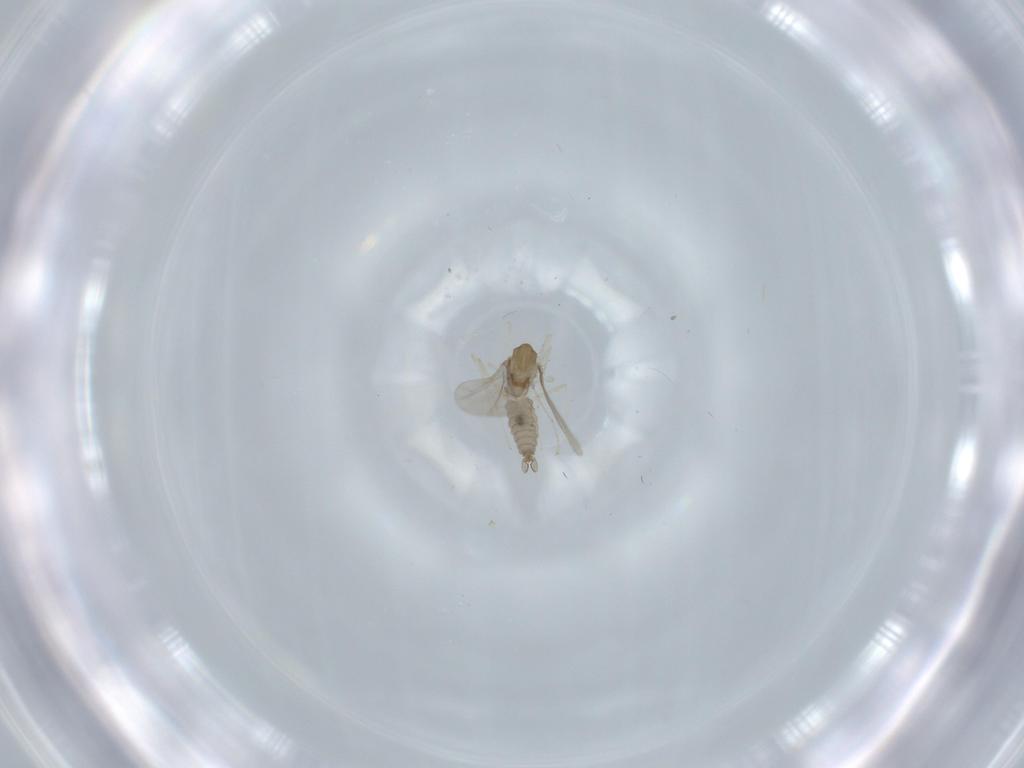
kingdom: Animalia
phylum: Arthropoda
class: Insecta
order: Diptera
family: Cecidomyiidae
